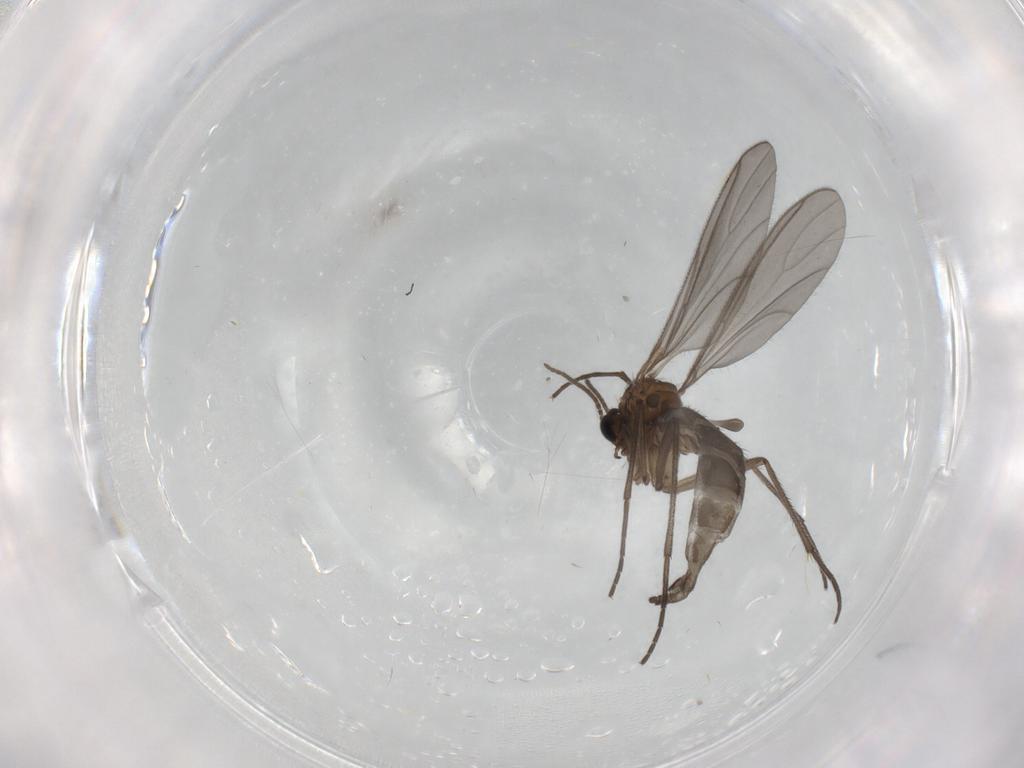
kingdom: Animalia
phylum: Arthropoda
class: Insecta
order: Diptera
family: Sciaridae
